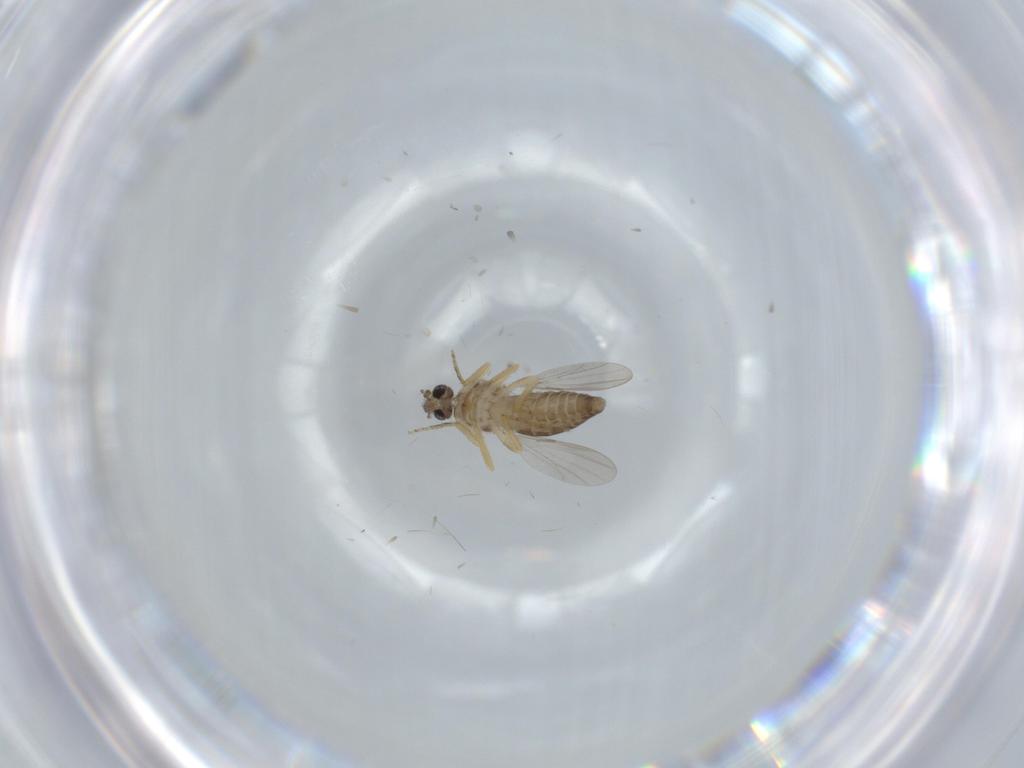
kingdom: Animalia
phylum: Arthropoda
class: Insecta
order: Diptera
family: Ceratopogonidae
